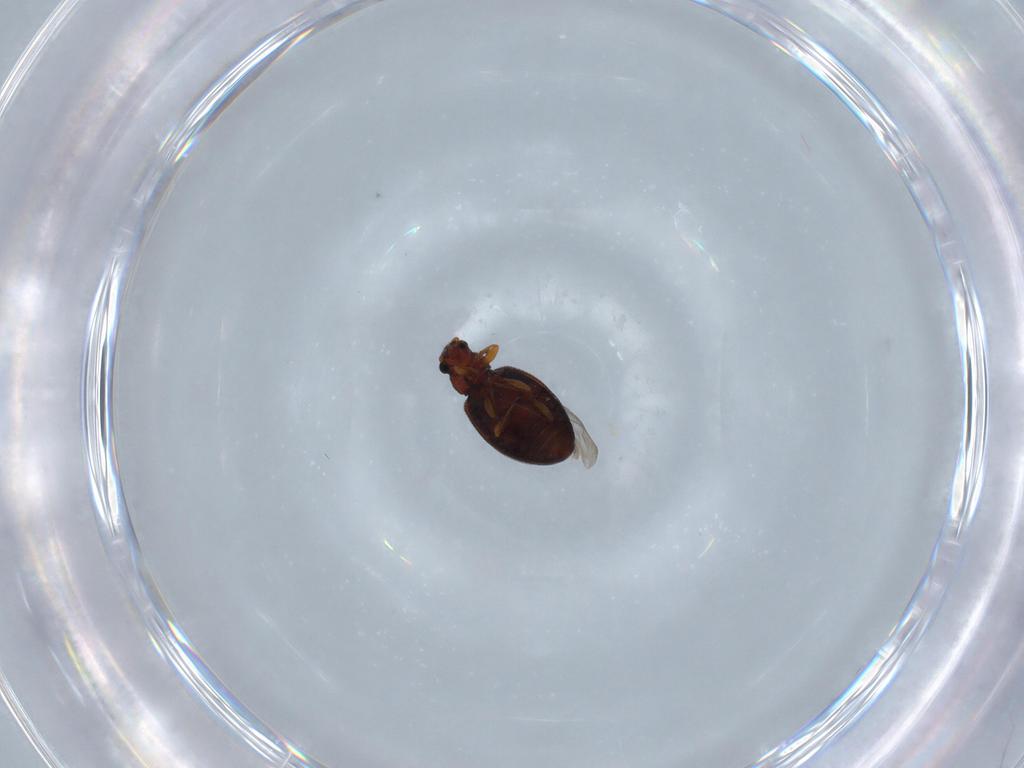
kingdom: Animalia
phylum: Arthropoda
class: Insecta
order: Coleoptera
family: Latridiidae
